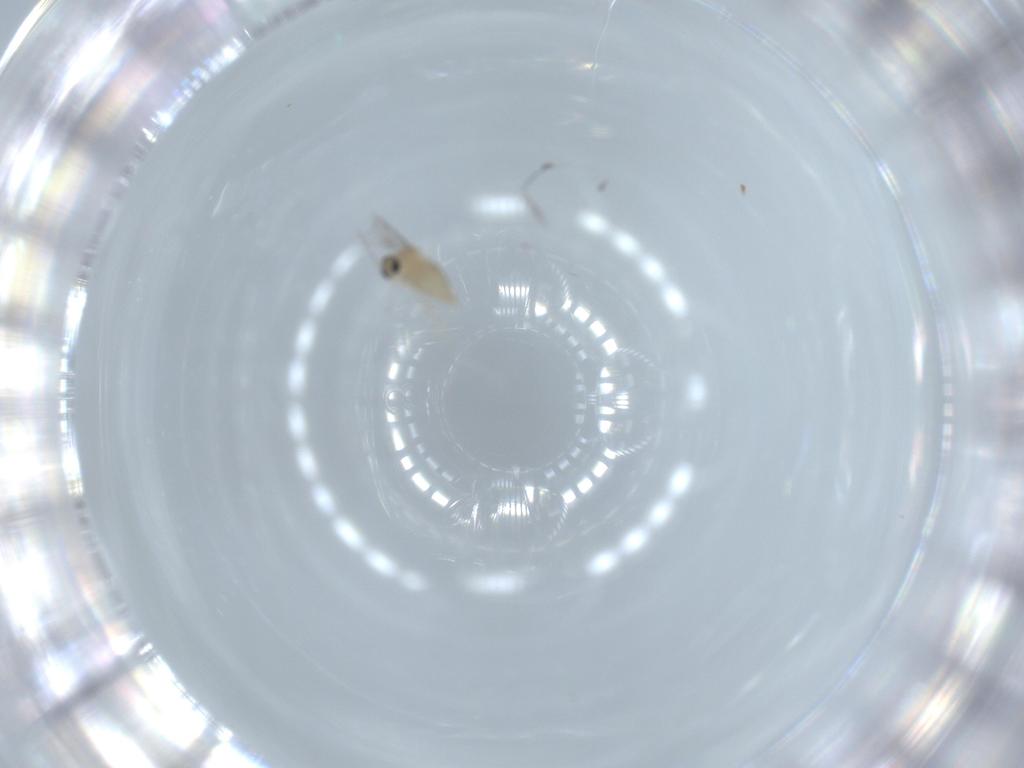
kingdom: Animalia
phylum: Arthropoda
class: Insecta
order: Diptera
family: Cecidomyiidae
